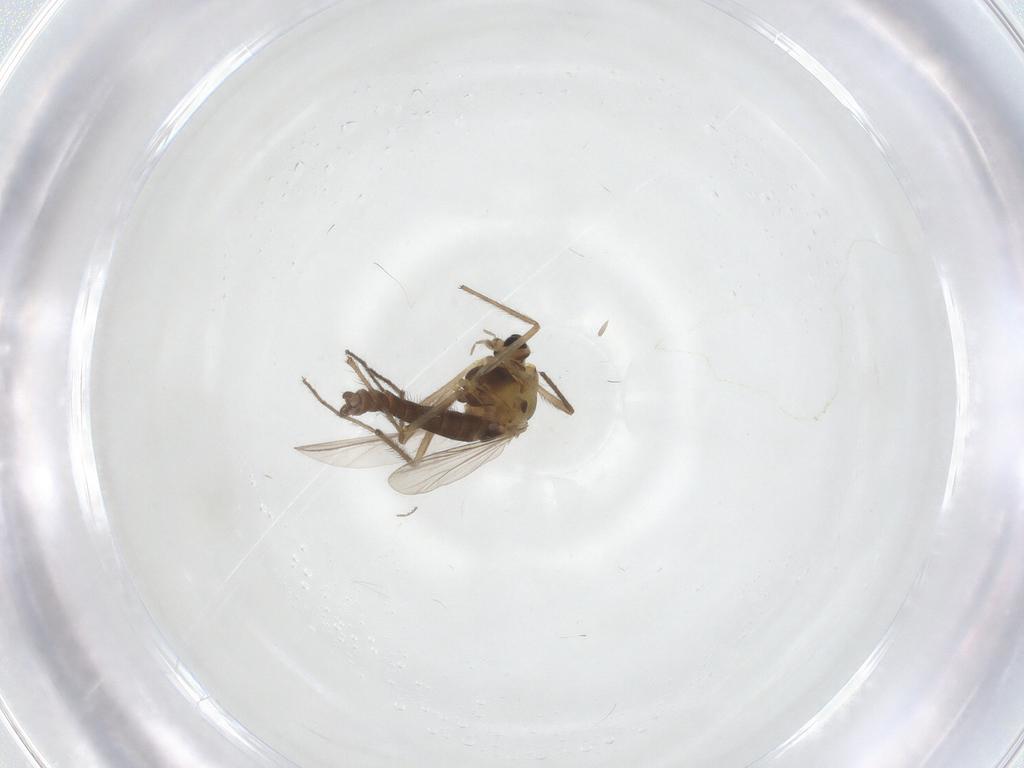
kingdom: Animalia
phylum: Arthropoda
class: Insecta
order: Diptera
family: Chironomidae
